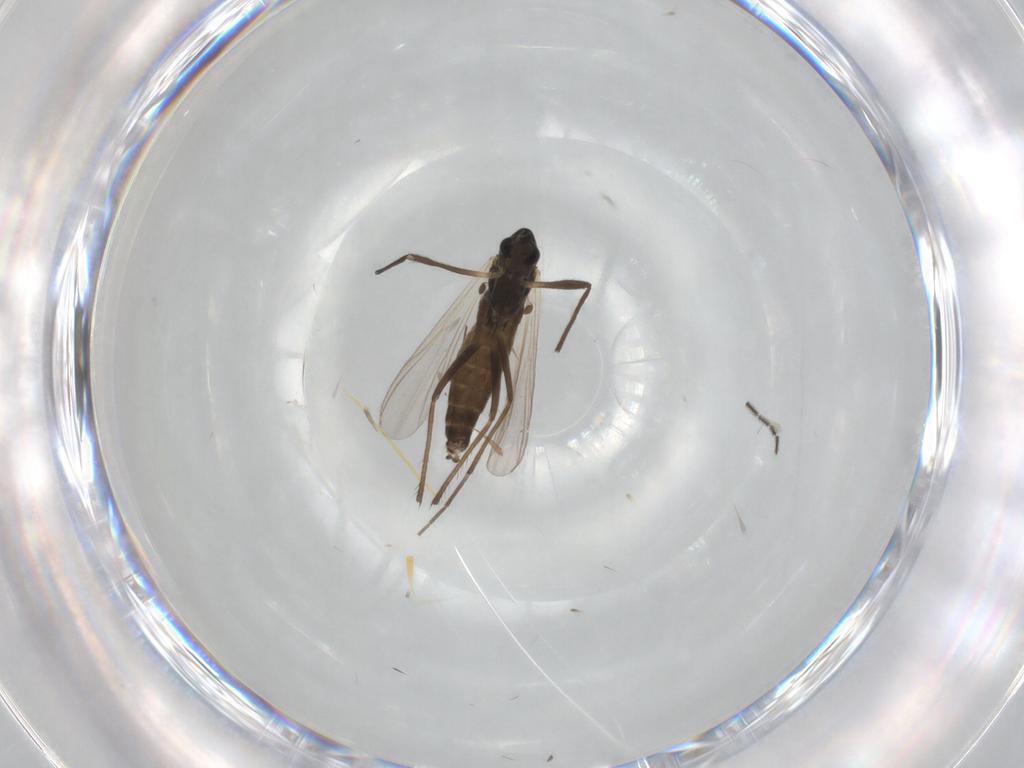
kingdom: Animalia
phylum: Arthropoda
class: Insecta
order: Diptera
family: Chironomidae
